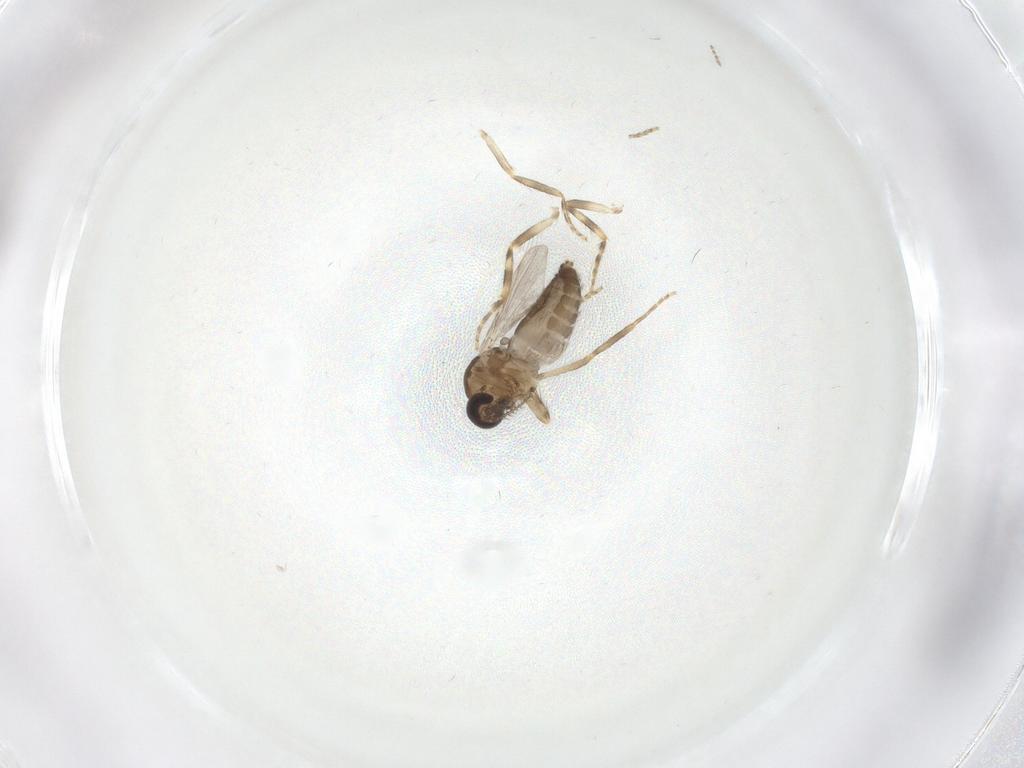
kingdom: Animalia
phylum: Arthropoda
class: Insecta
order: Diptera
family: Ceratopogonidae
